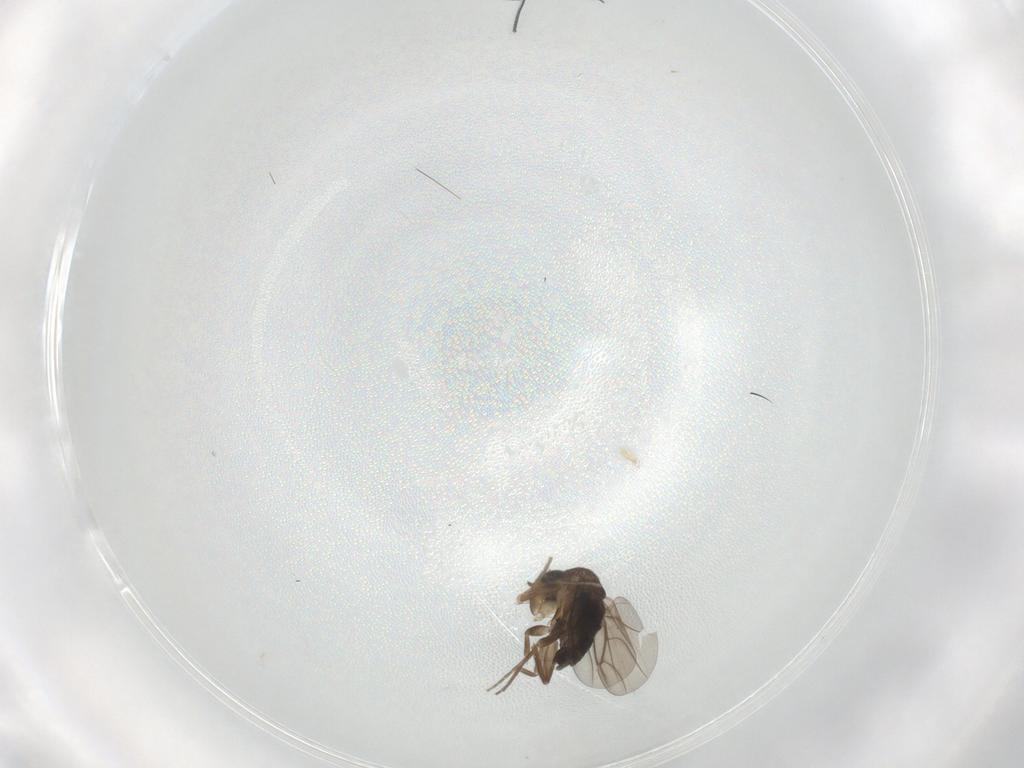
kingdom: Animalia
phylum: Arthropoda
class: Insecta
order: Diptera
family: Phoridae
